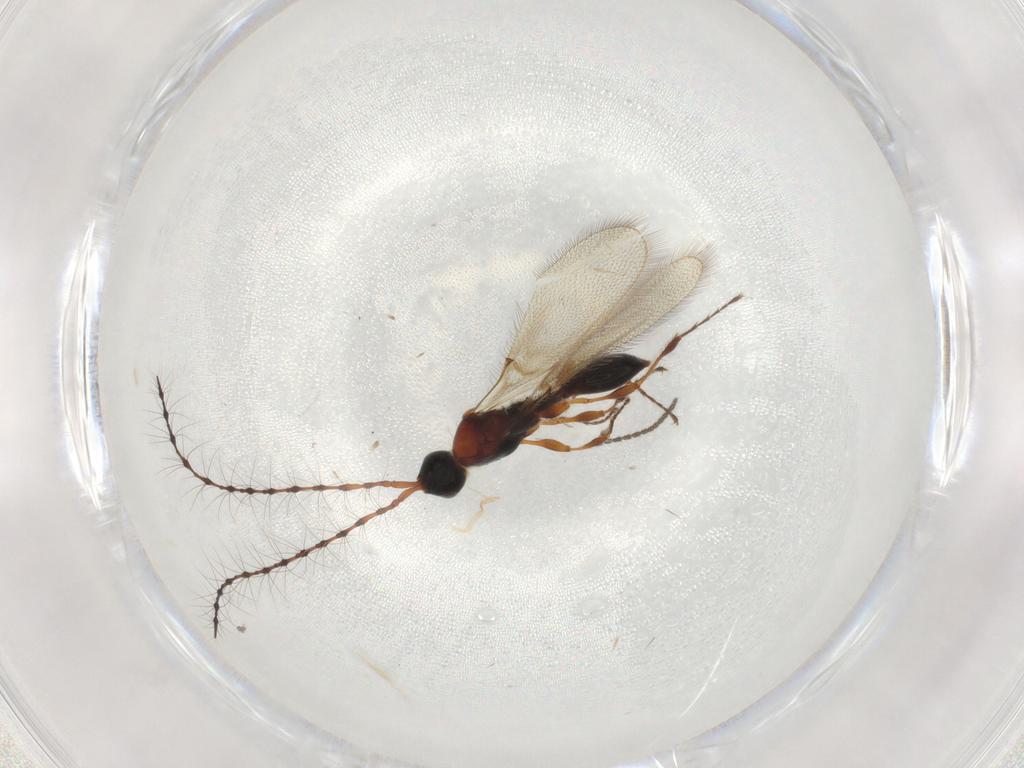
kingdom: Animalia
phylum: Arthropoda
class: Insecta
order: Hymenoptera
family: Diapriidae
